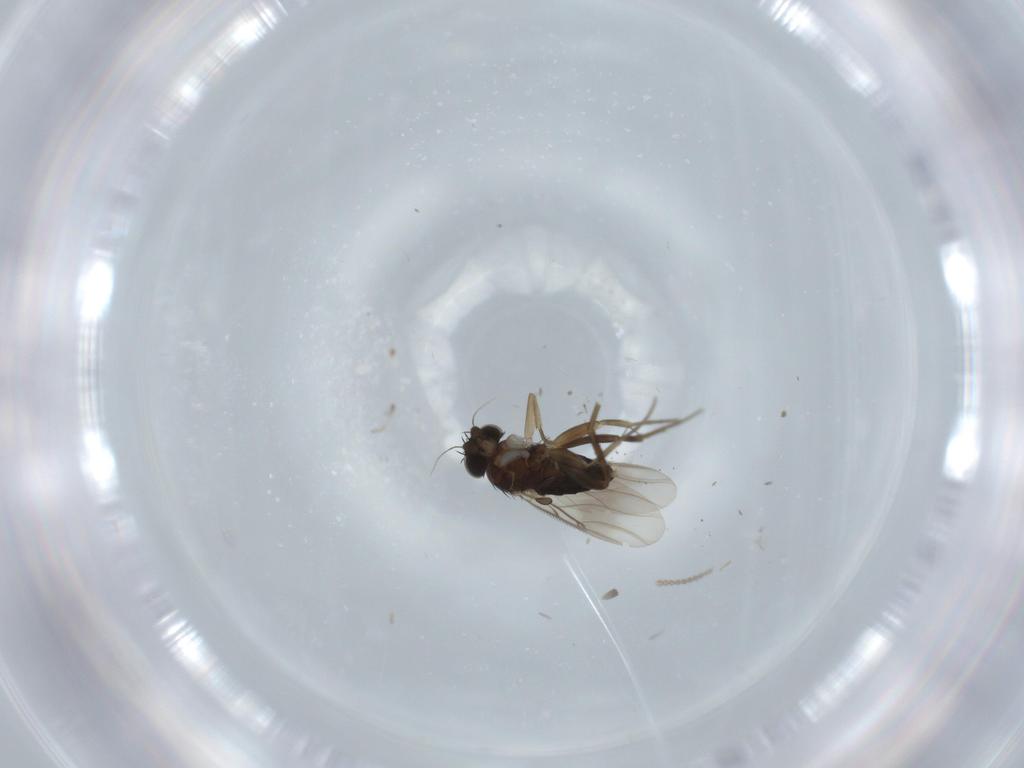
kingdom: Animalia
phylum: Arthropoda
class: Insecta
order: Diptera
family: Phoridae
